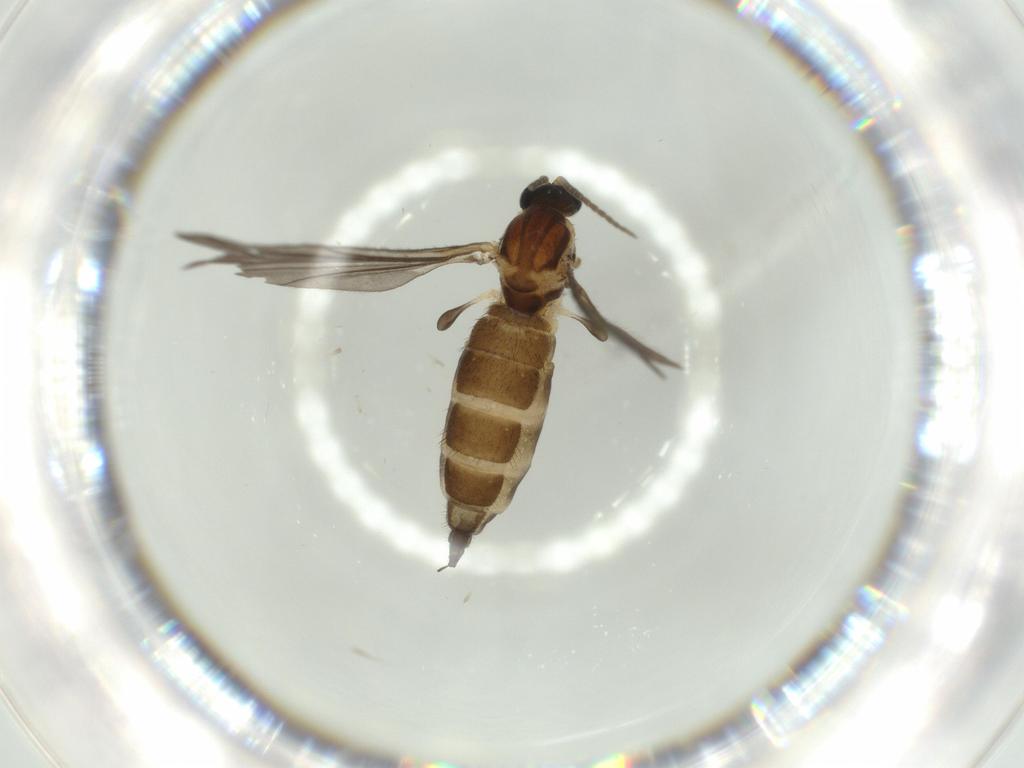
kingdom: Animalia
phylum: Arthropoda
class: Insecta
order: Diptera
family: Sciaridae
